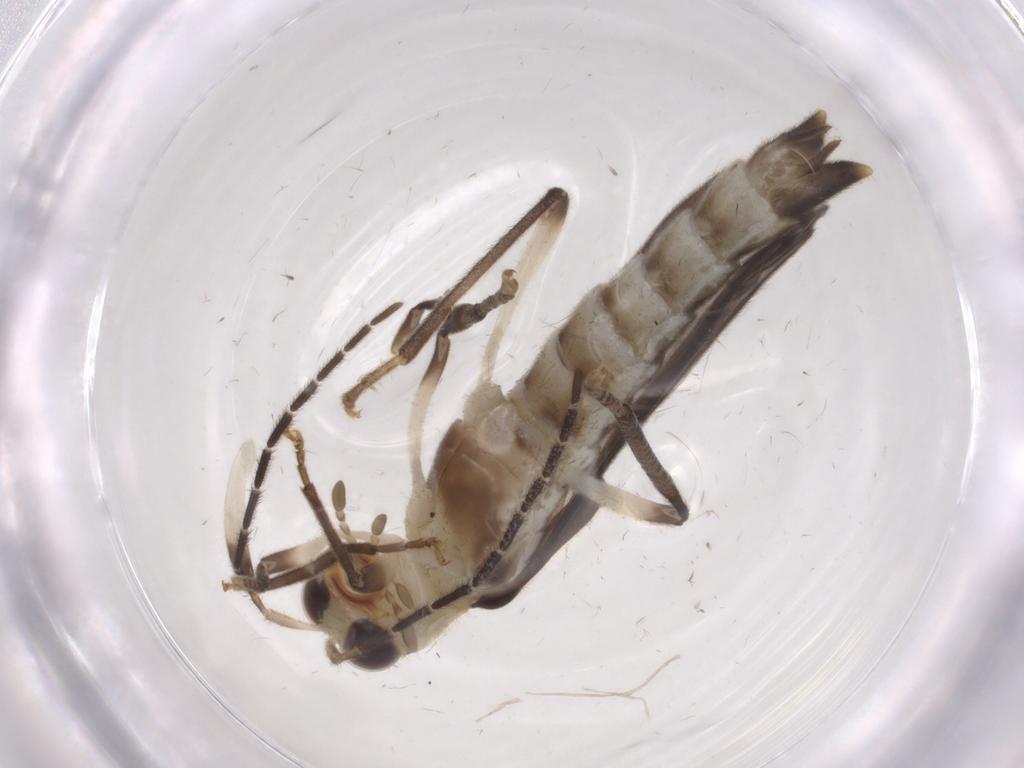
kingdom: Animalia
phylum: Arthropoda
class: Insecta
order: Coleoptera
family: Cantharidae
